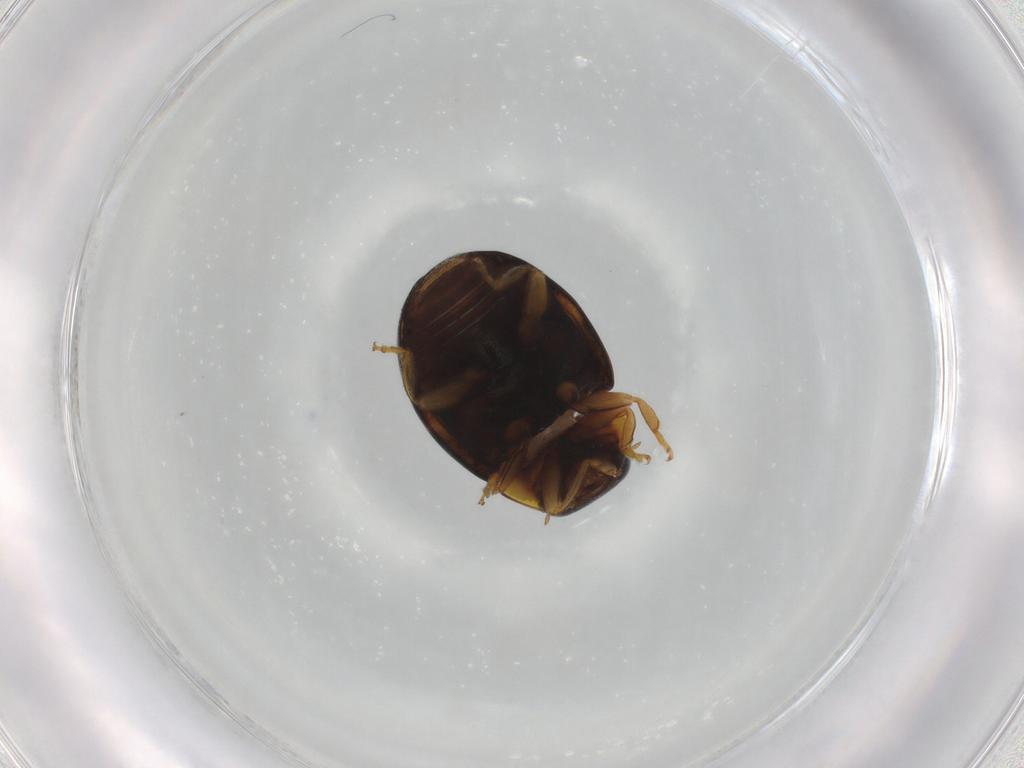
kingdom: Animalia
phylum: Arthropoda
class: Insecta
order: Coleoptera
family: Coccinellidae
